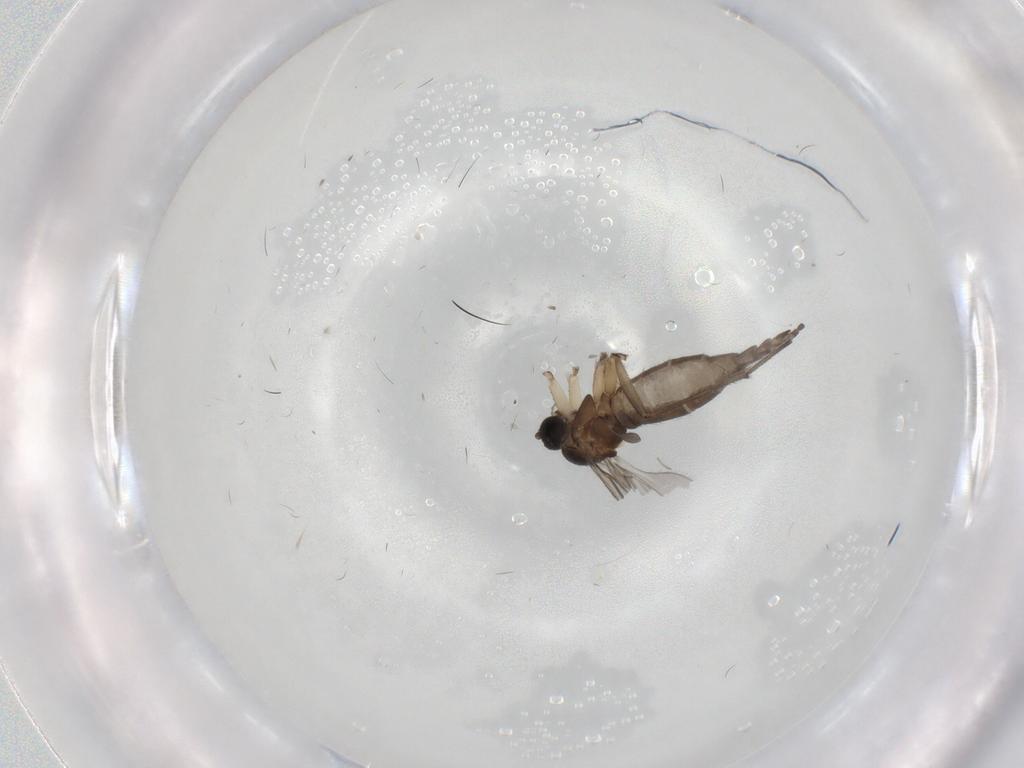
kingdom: Animalia
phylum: Arthropoda
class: Insecta
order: Diptera
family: Sciaridae
